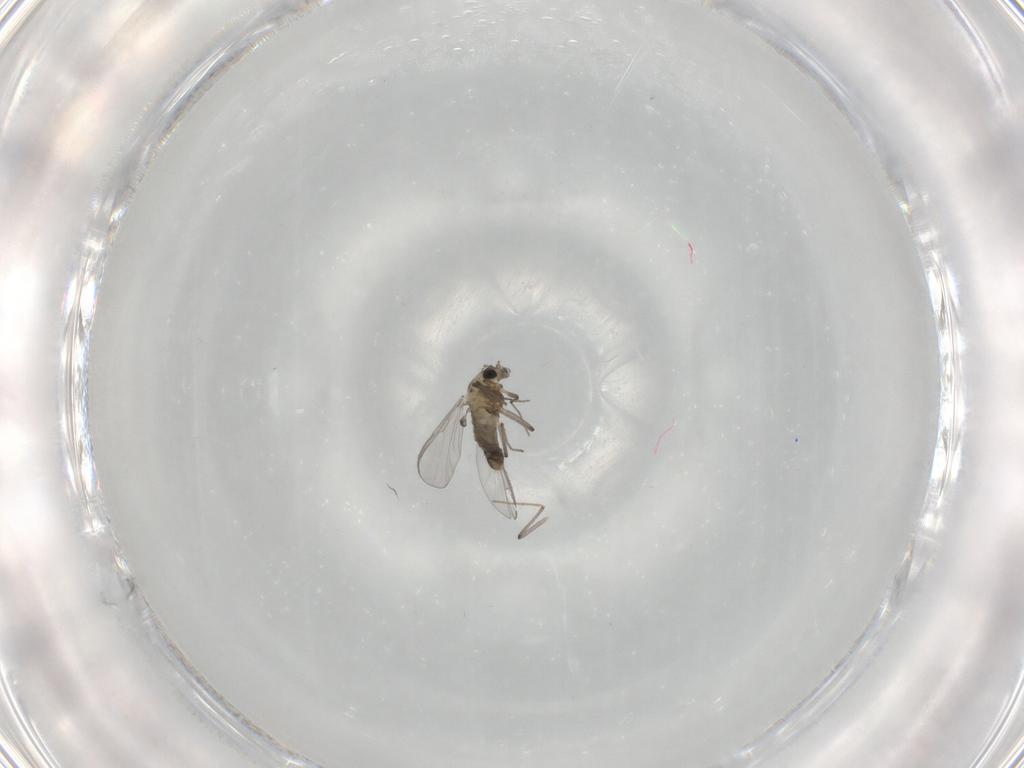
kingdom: Animalia
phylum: Arthropoda
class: Insecta
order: Diptera
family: Chironomidae
